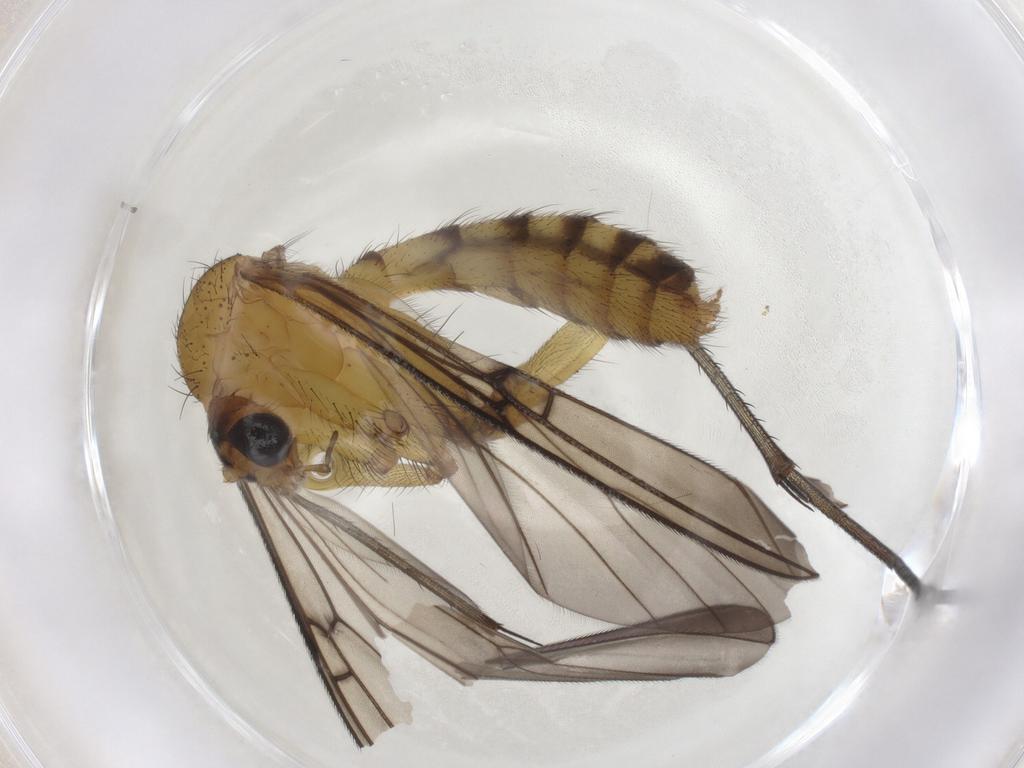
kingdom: Animalia
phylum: Arthropoda
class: Insecta
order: Diptera
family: Mycetophilidae
